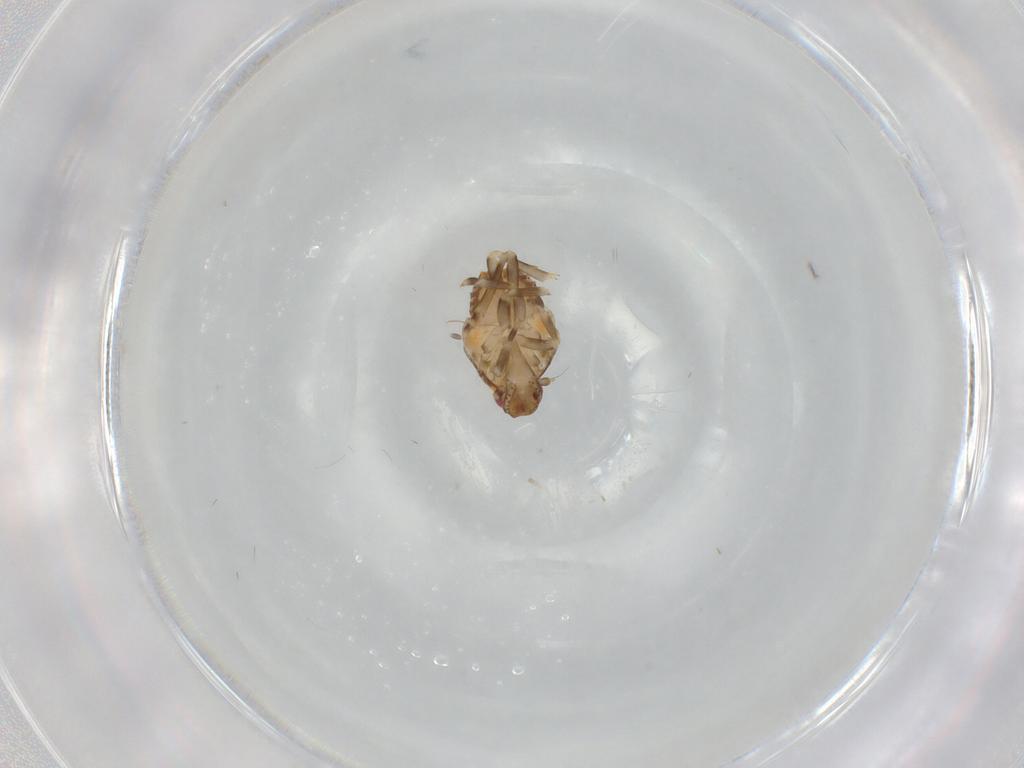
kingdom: Animalia
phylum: Arthropoda
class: Insecta
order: Hemiptera
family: Flatidae
